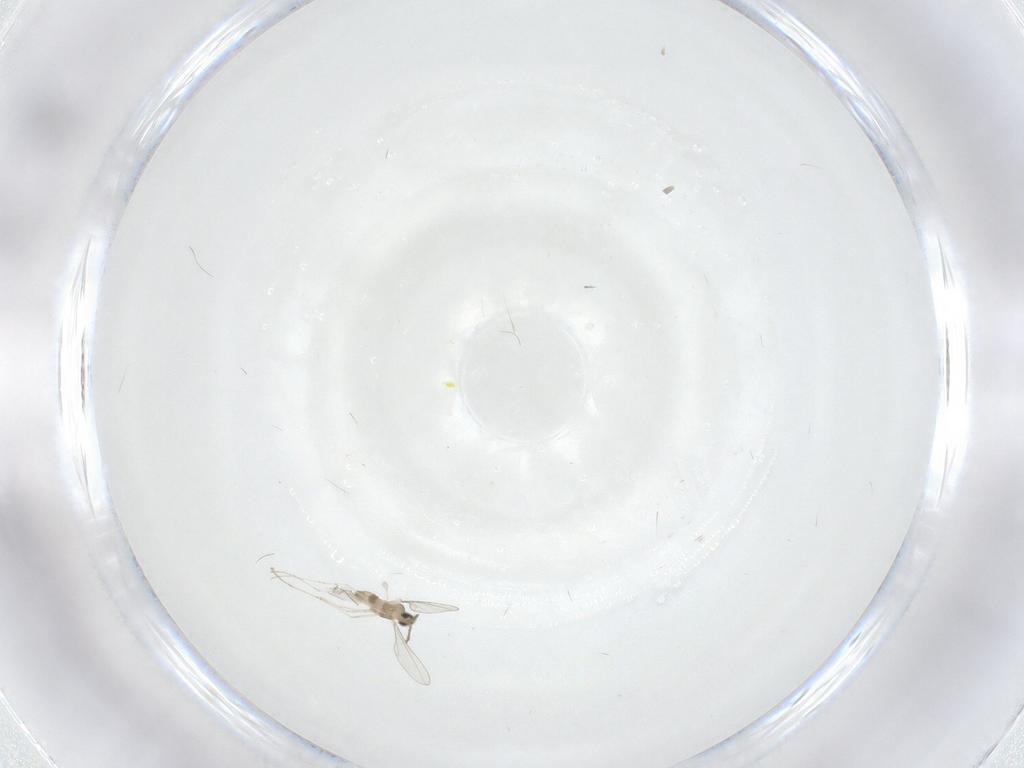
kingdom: Animalia
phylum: Arthropoda
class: Insecta
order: Diptera
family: Cecidomyiidae
